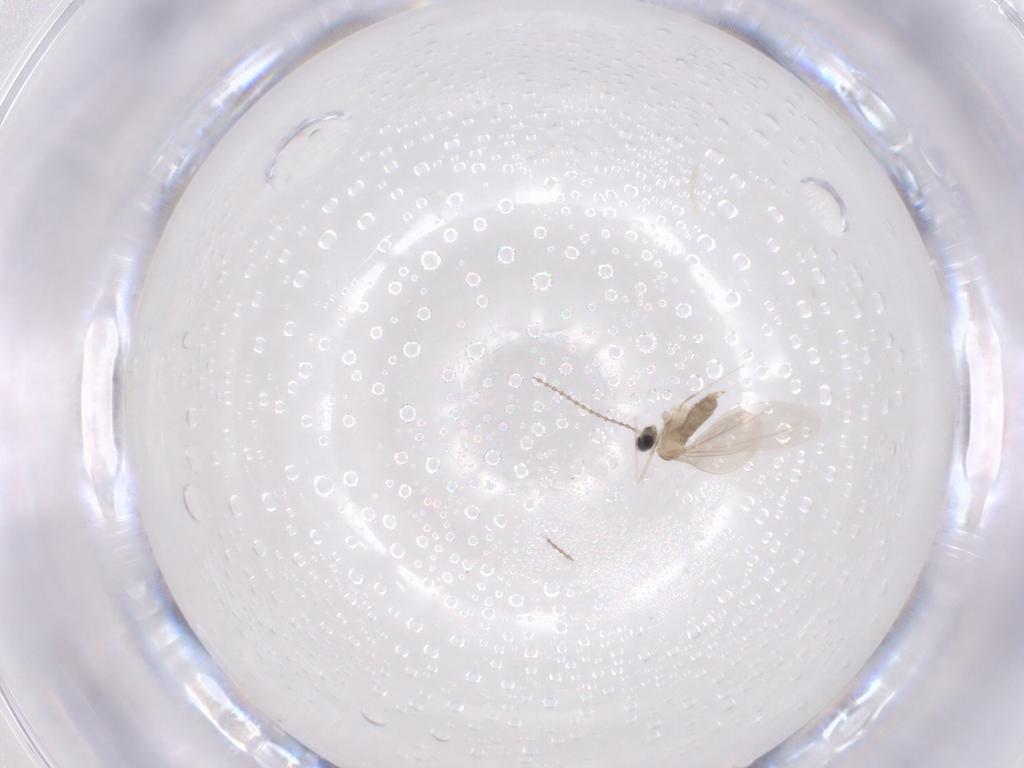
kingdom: Animalia
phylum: Arthropoda
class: Insecta
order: Diptera
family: Cecidomyiidae
